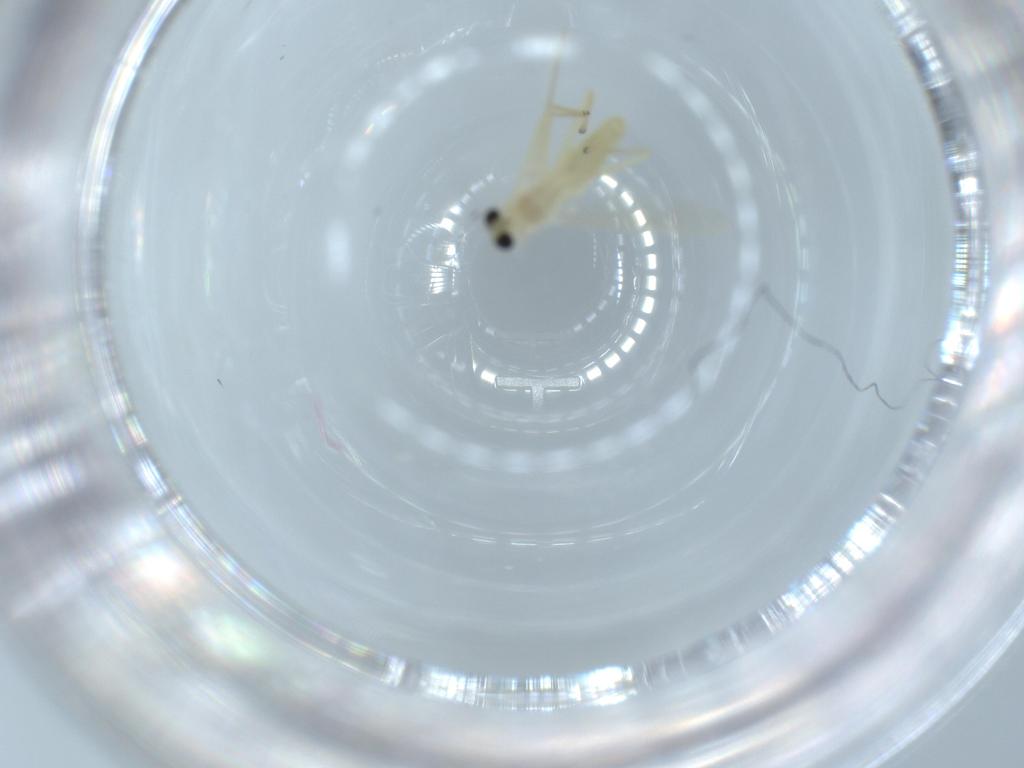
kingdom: Animalia
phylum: Arthropoda
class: Insecta
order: Diptera
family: Chironomidae
